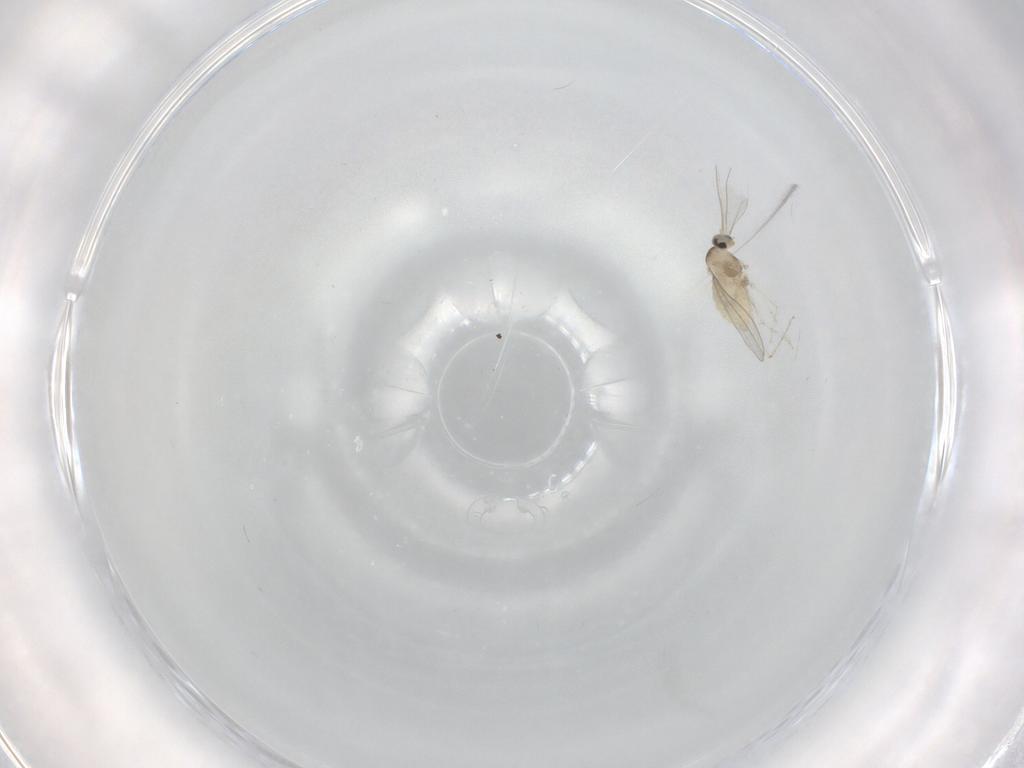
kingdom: Animalia
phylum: Arthropoda
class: Insecta
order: Diptera
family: Cecidomyiidae
